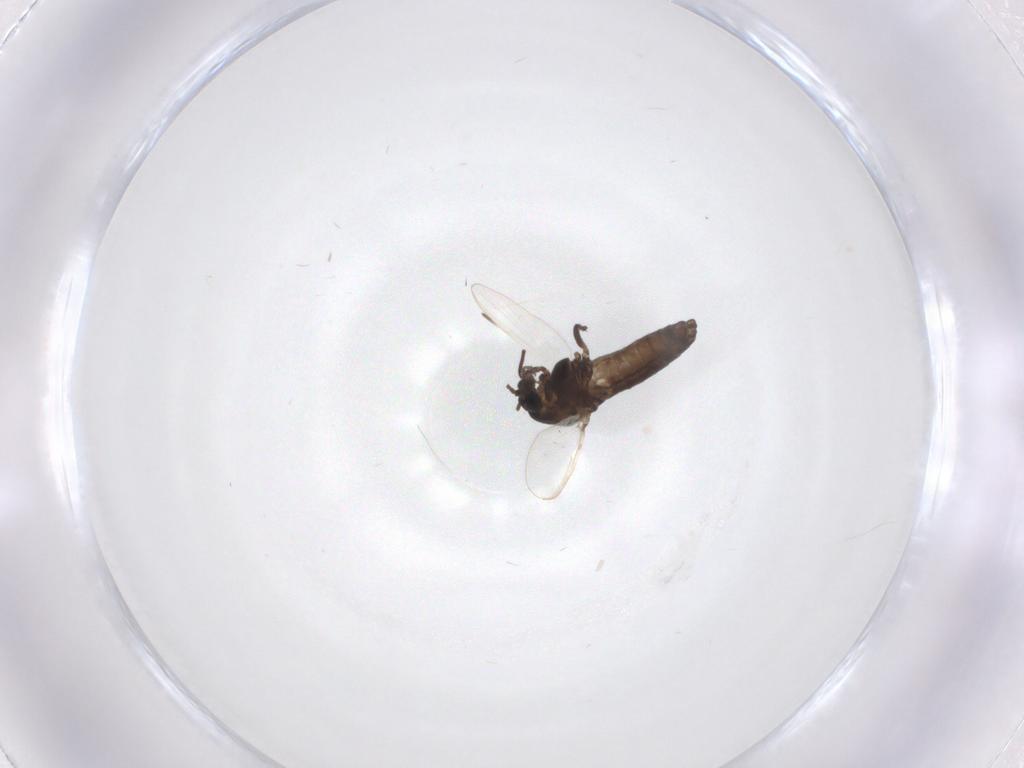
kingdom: Animalia
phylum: Arthropoda
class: Insecta
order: Diptera
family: Chironomidae
